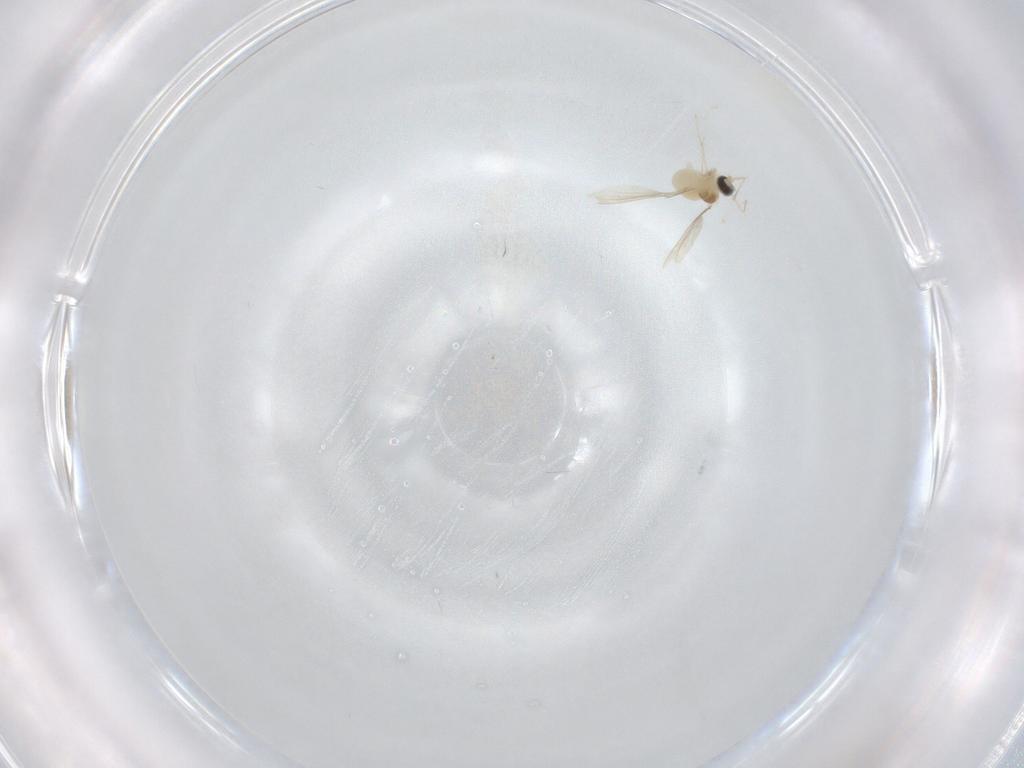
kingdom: Animalia
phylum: Arthropoda
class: Insecta
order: Diptera
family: Cecidomyiidae
